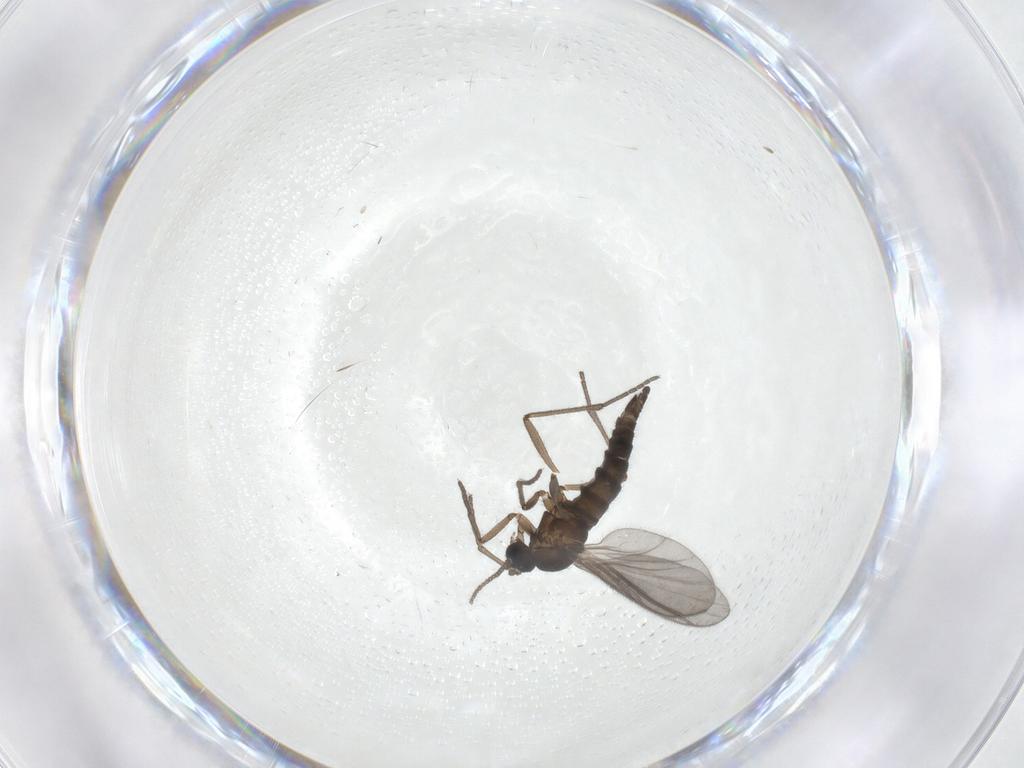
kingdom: Animalia
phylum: Arthropoda
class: Insecta
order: Diptera
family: Sciaridae
